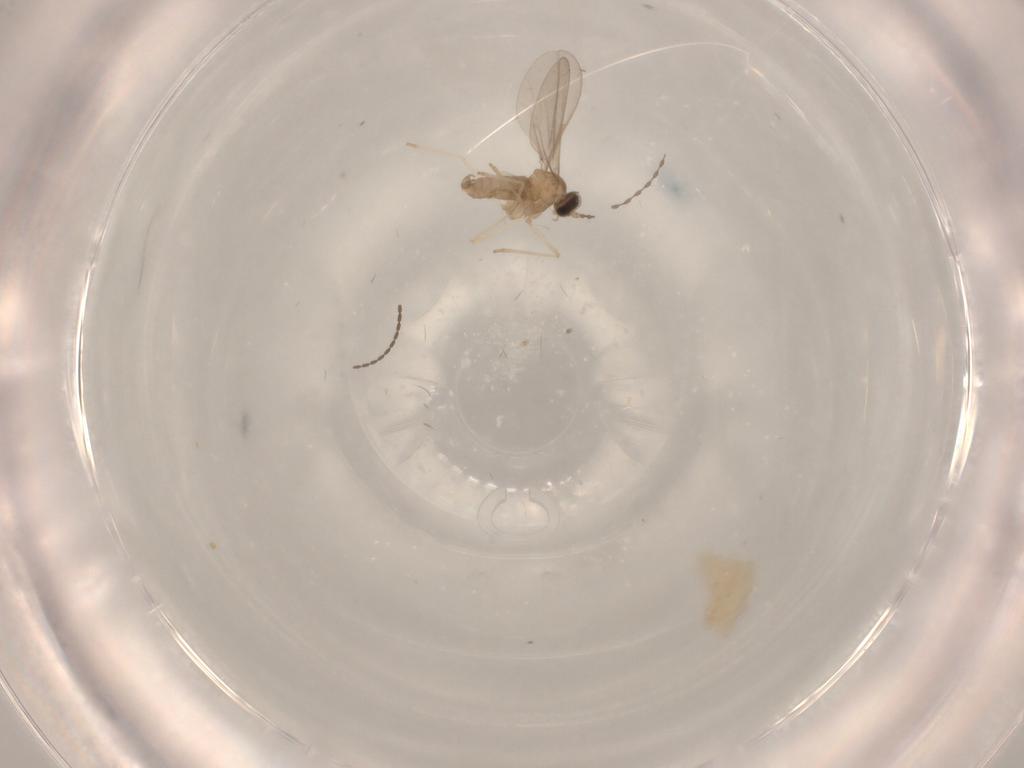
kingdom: Animalia
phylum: Arthropoda
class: Insecta
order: Diptera
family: Cecidomyiidae
